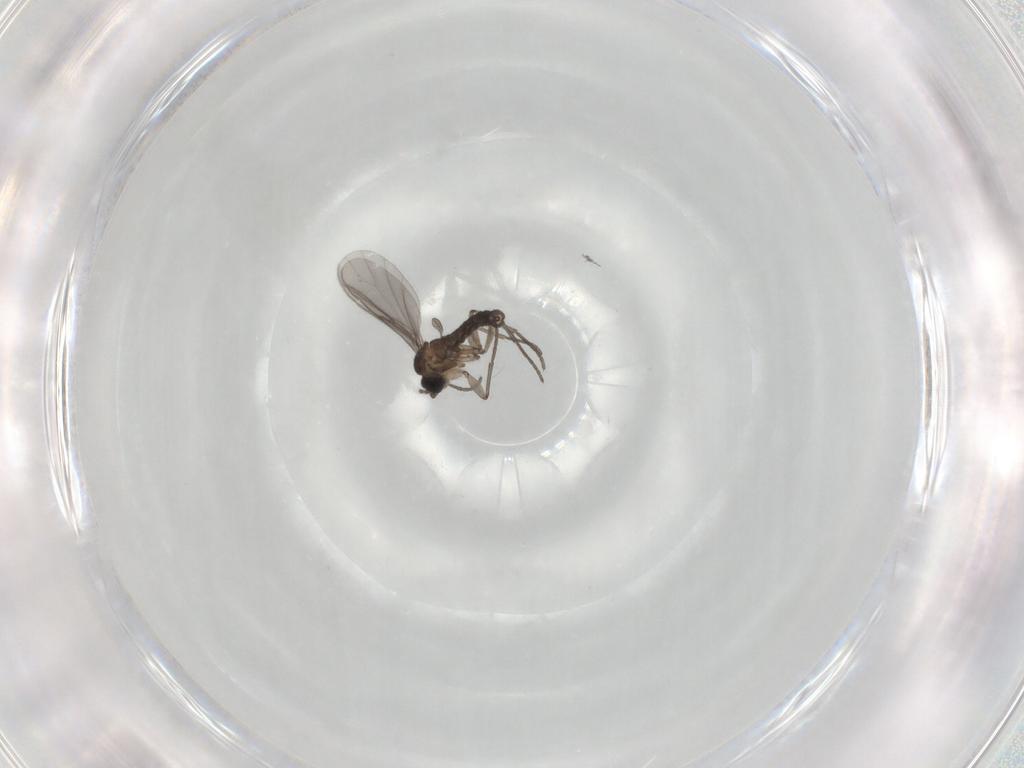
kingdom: Animalia
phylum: Arthropoda
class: Insecta
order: Diptera
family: Sciaridae
